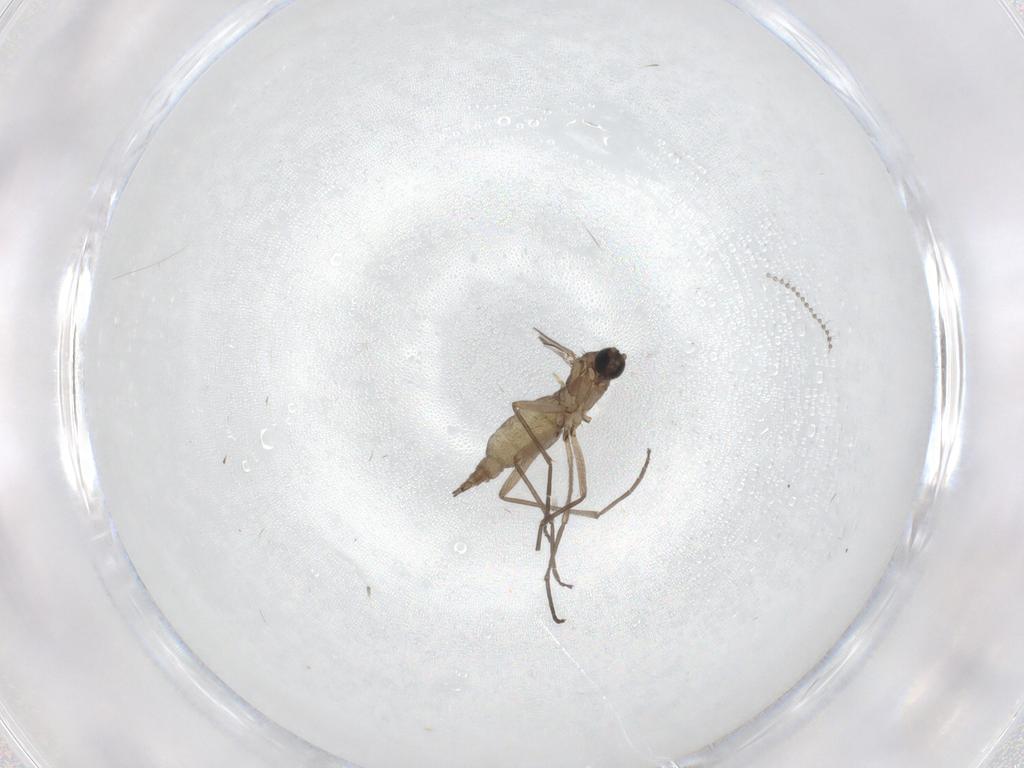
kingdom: Animalia
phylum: Arthropoda
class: Insecta
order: Diptera
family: Sciaridae
